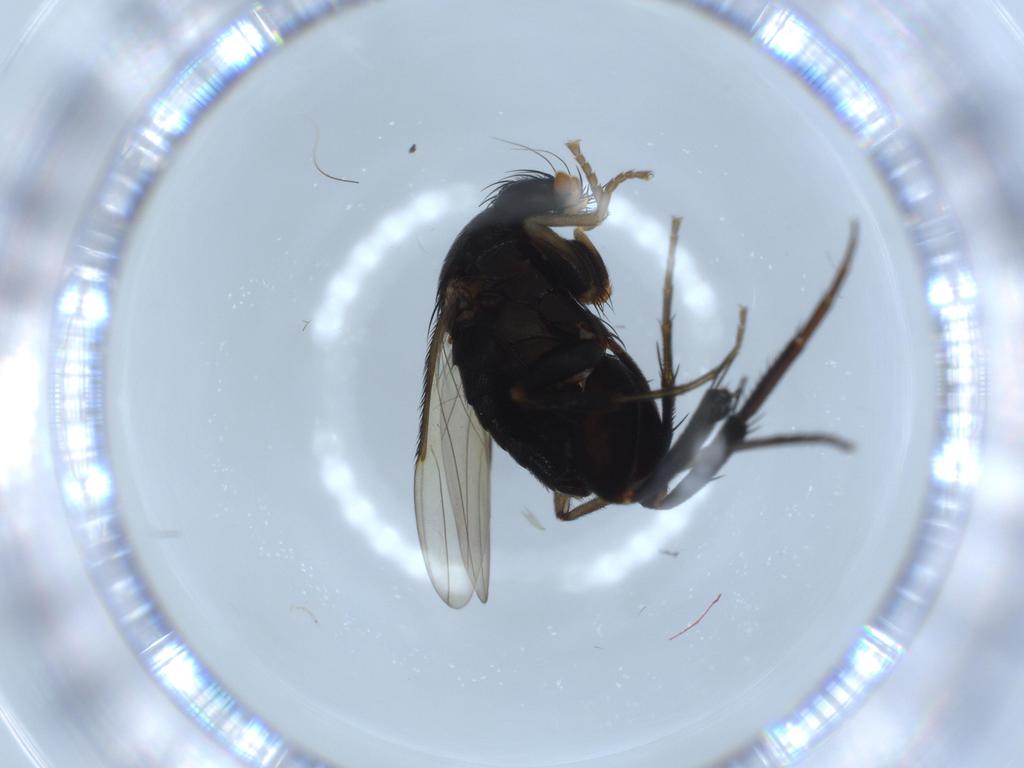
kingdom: Animalia
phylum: Arthropoda
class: Insecta
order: Diptera
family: Phoridae
